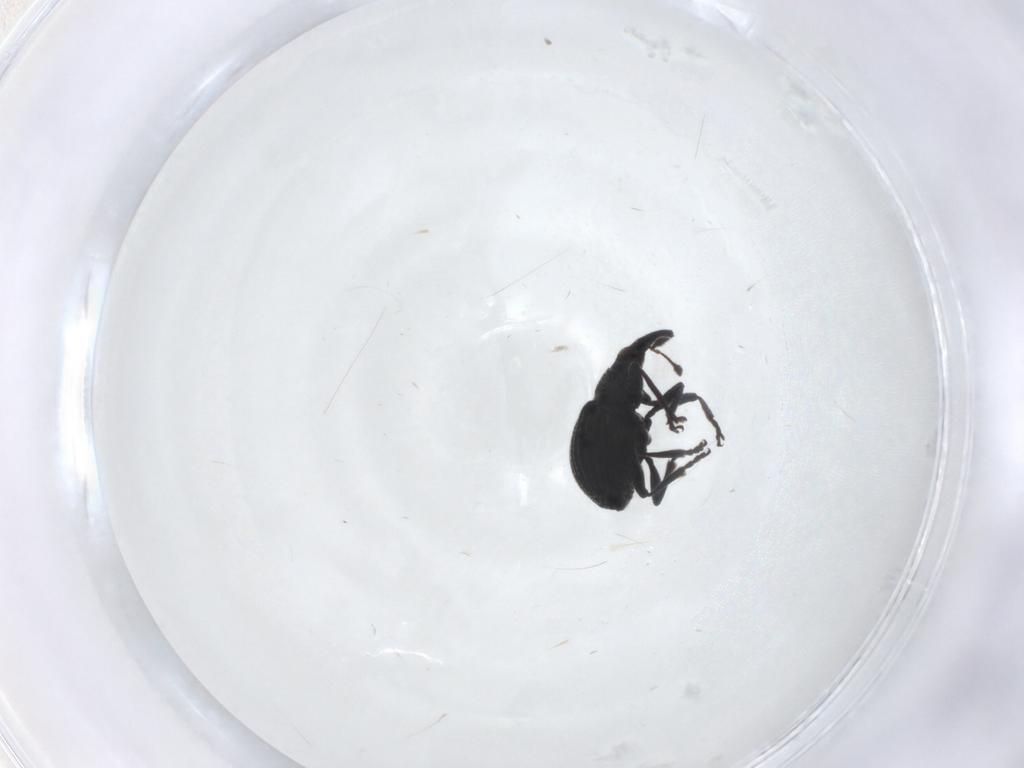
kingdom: Animalia
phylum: Arthropoda
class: Insecta
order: Coleoptera
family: Brentidae
